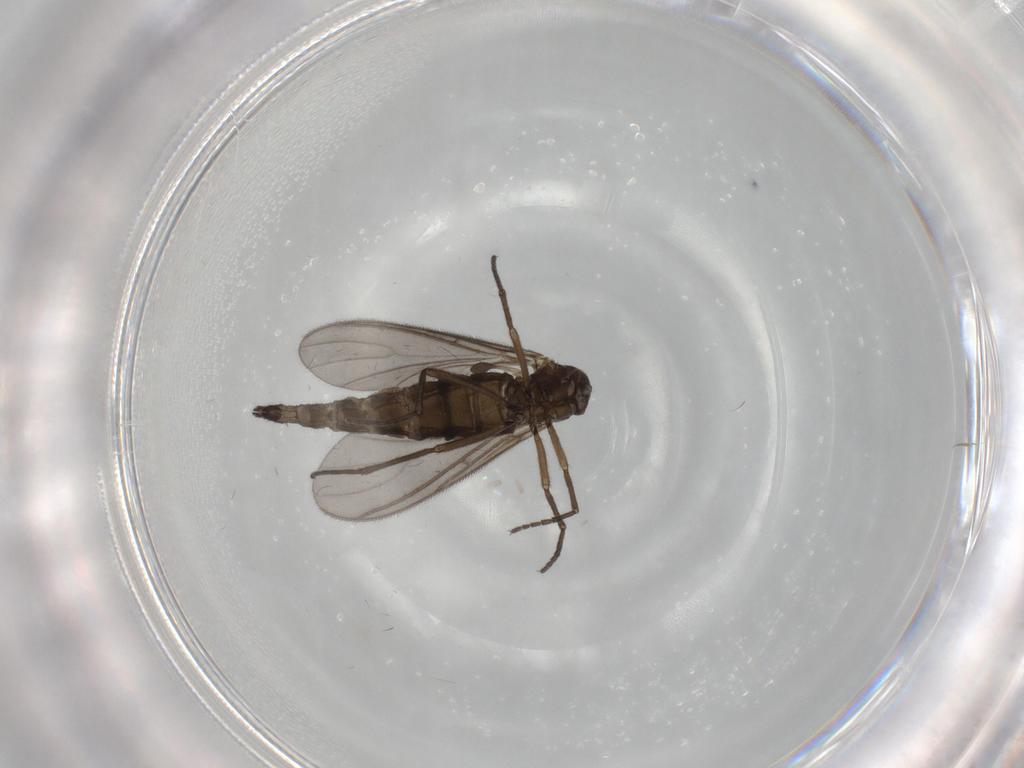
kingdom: Animalia
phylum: Arthropoda
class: Insecta
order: Diptera
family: Sciaridae
